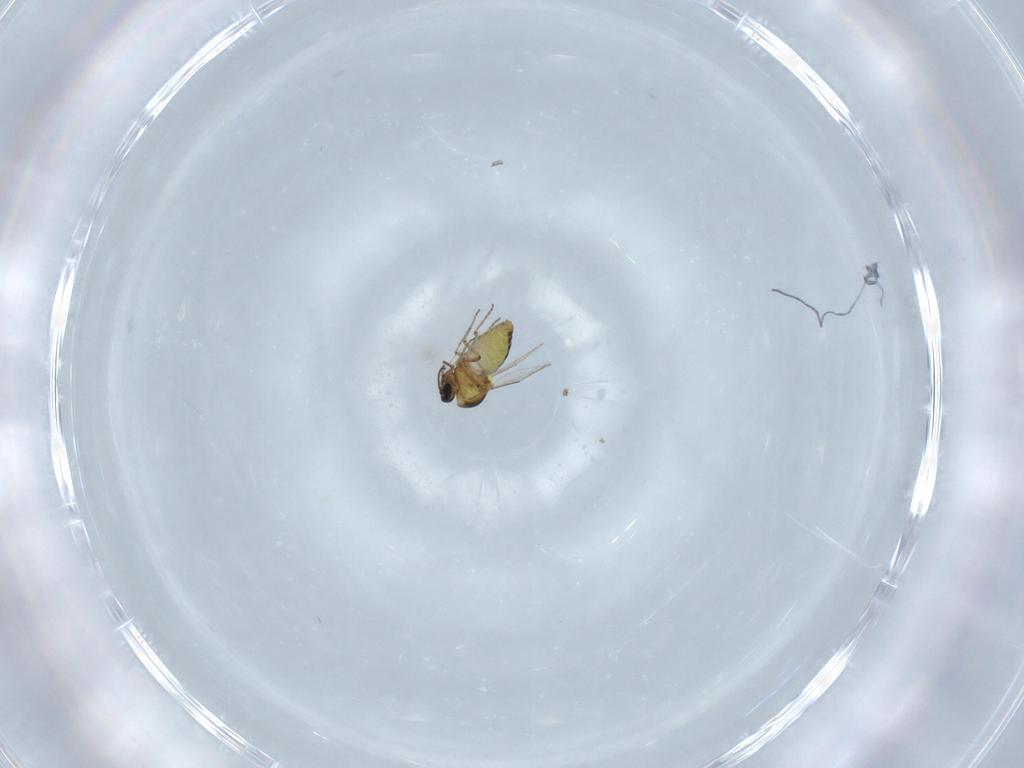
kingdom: Animalia
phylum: Arthropoda
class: Insecta
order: Diptera
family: Ceratopogonidae
